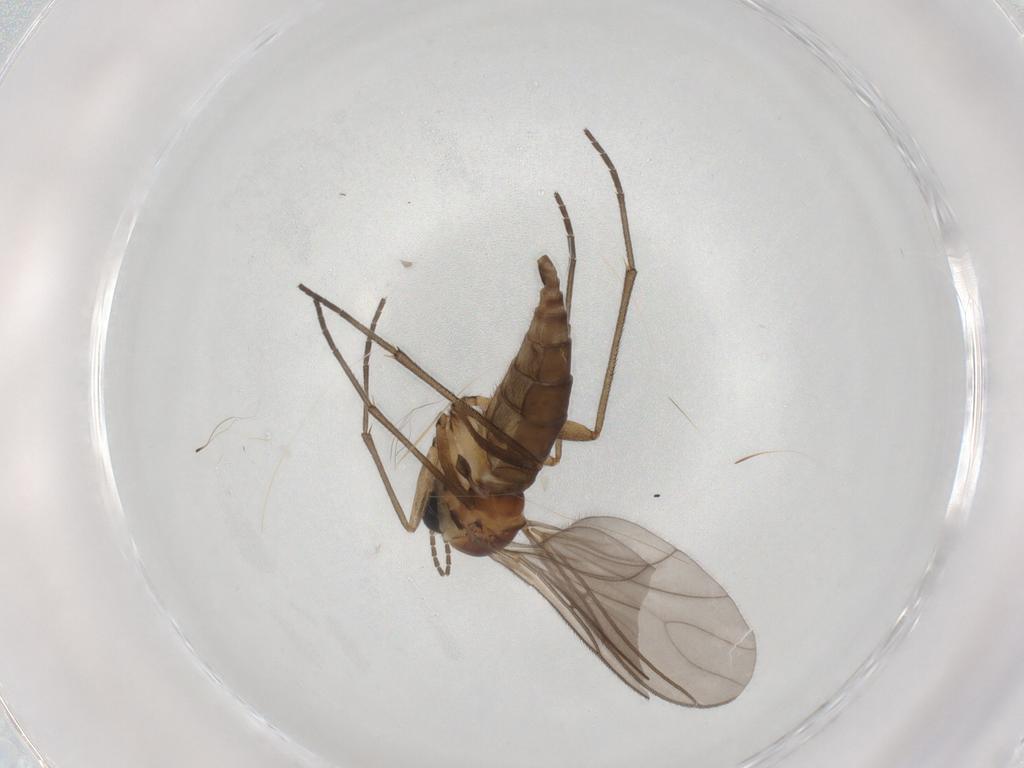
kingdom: Animalia
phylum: Arthropoda
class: Insecta
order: Diptera
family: Sciaridae
